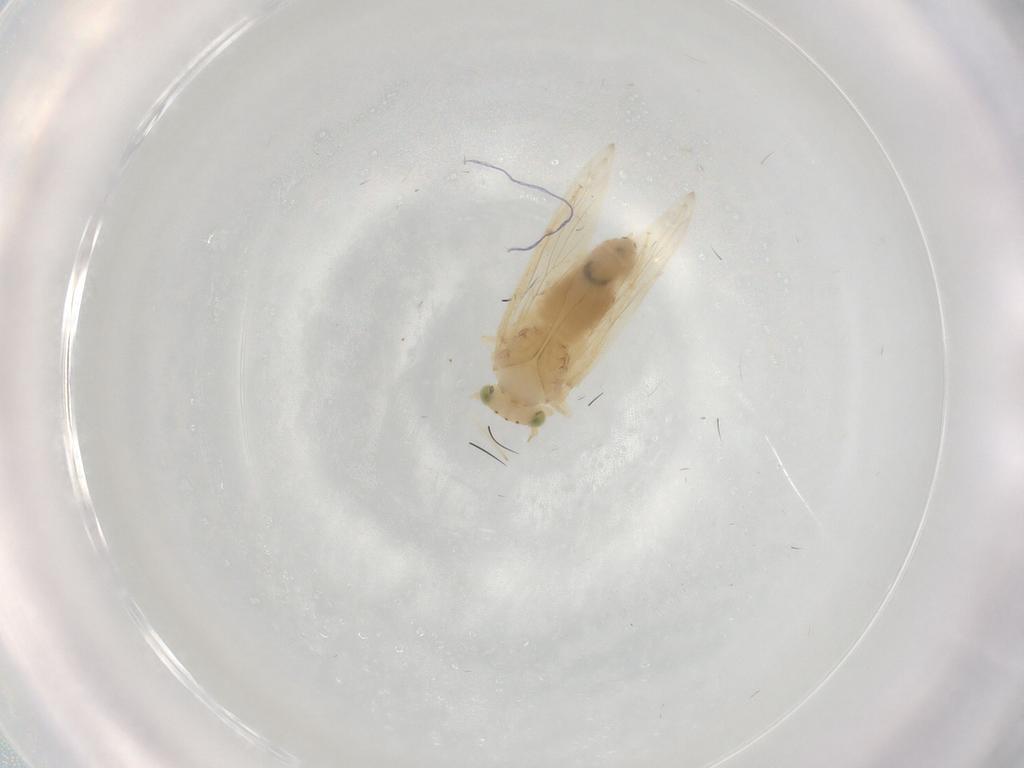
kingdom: Animalia
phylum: Arthropoda
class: Insecta
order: Psocodea
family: Lepidopsocidae
